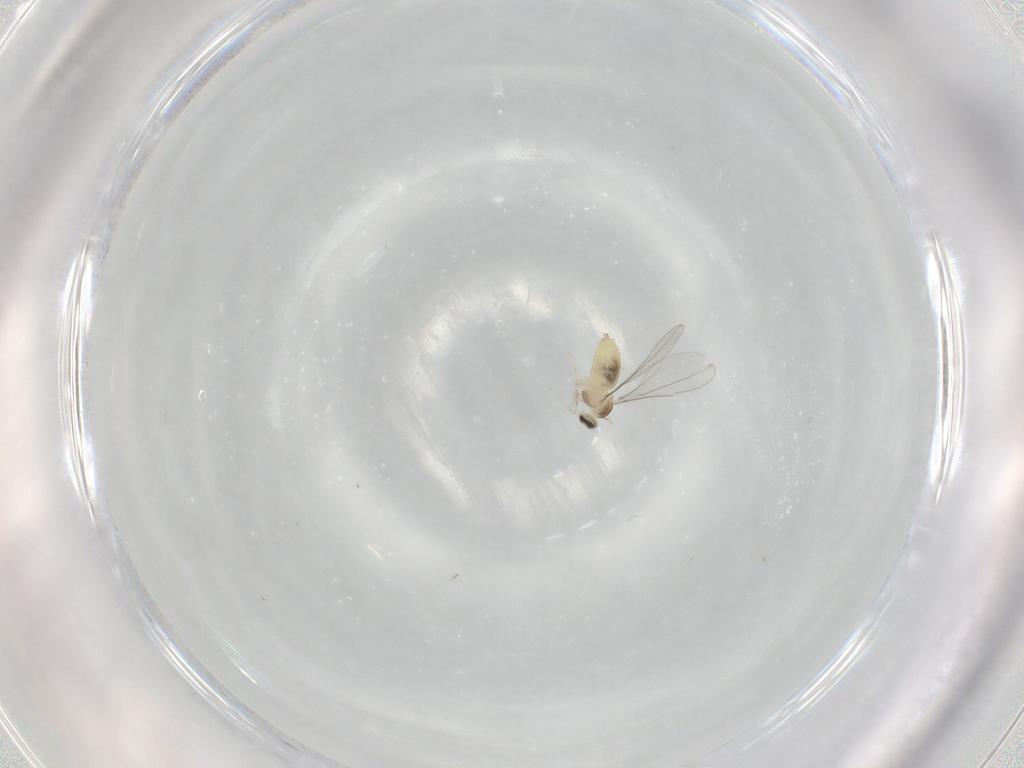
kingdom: Animalia
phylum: Arthropoda
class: Insecta
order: Diptera
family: Cecidomyiidae
